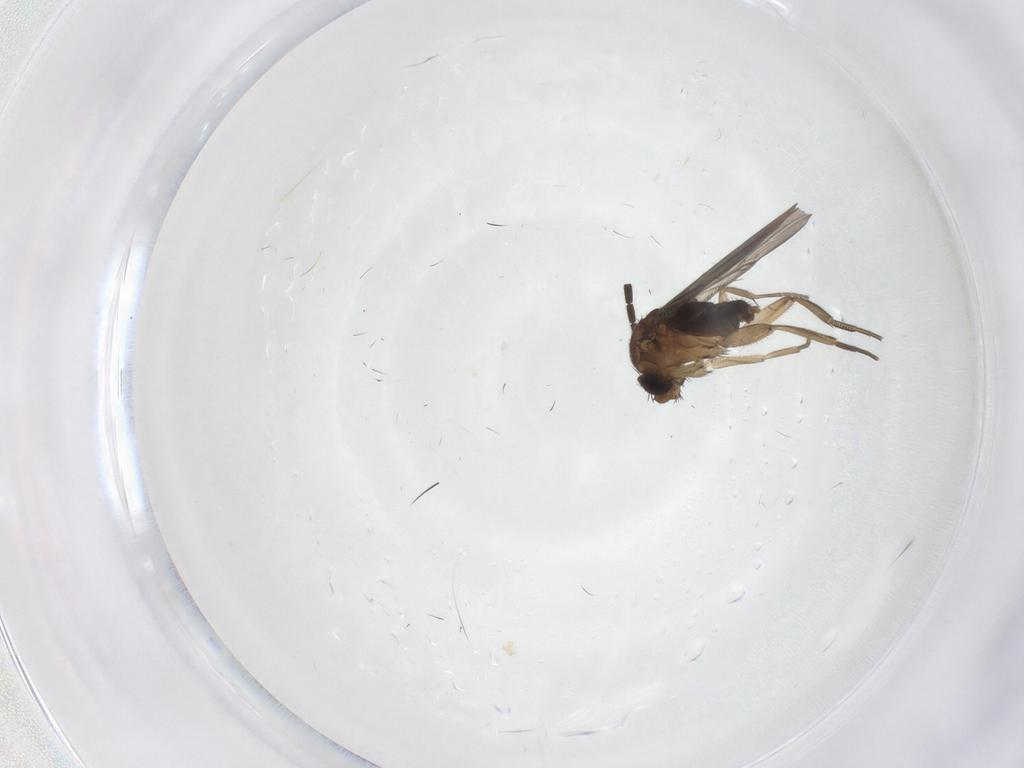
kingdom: Animalia
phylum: Arthropoda
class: Insecta
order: Diptera
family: Phoridae
